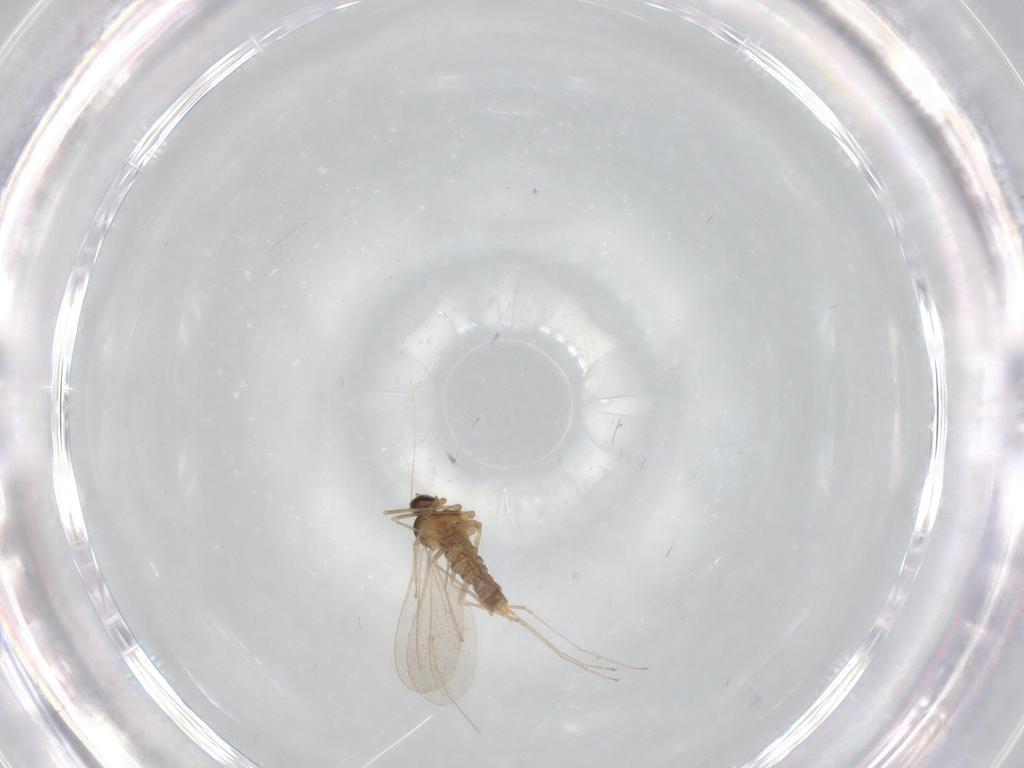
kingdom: Animalia
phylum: Arthropoda
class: Insecta
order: Diptera
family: Cecidomyiidae
